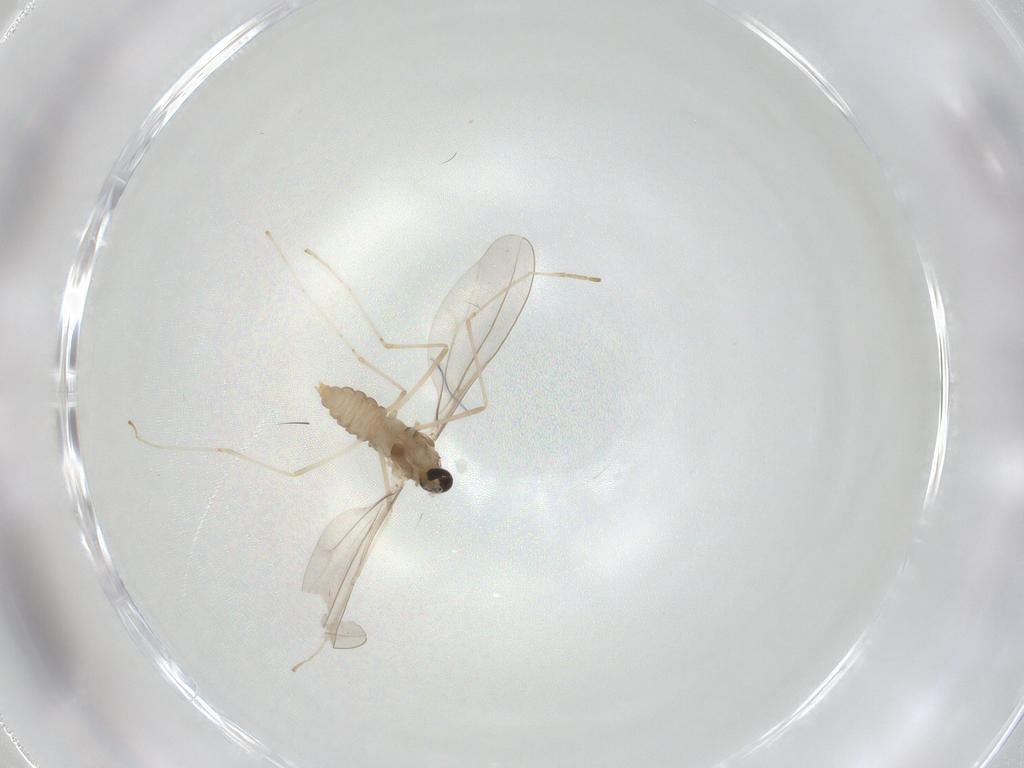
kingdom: Animalia
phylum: Arthropoda
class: Insecta
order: Diptera
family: Cecidomyiidae
